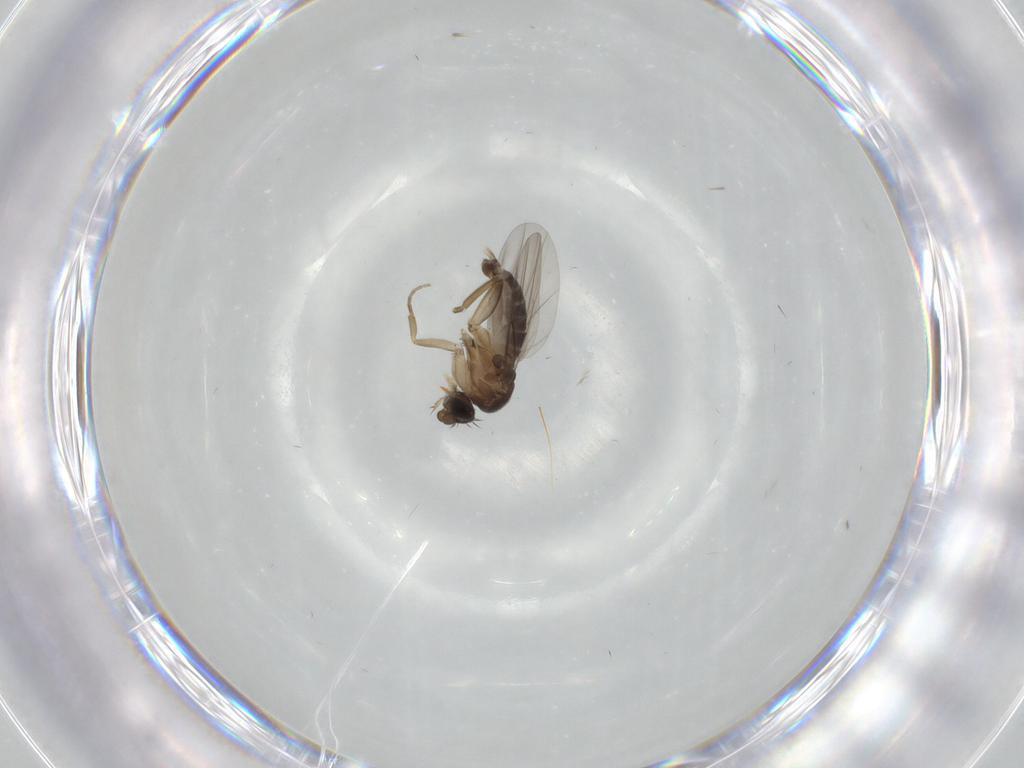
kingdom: Animalia
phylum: Arthropoda
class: Insecta
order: Diptera
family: Phoridae
